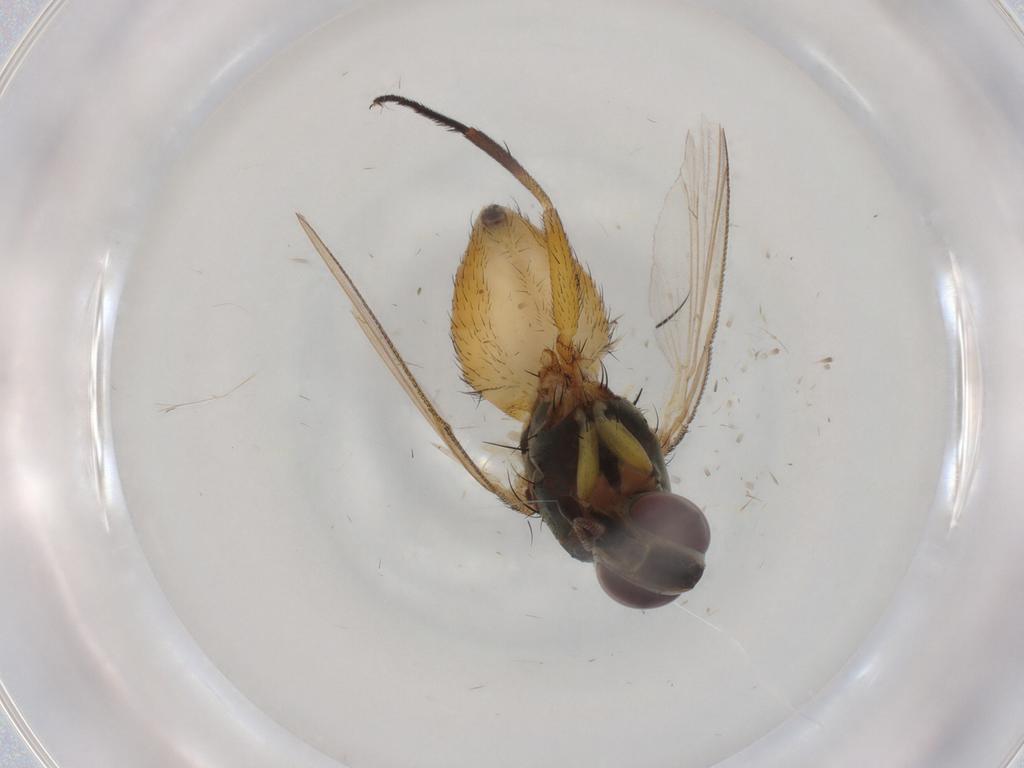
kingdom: Animalia
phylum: Arthropoda
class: Insecta
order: Diptera
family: Muscidae
